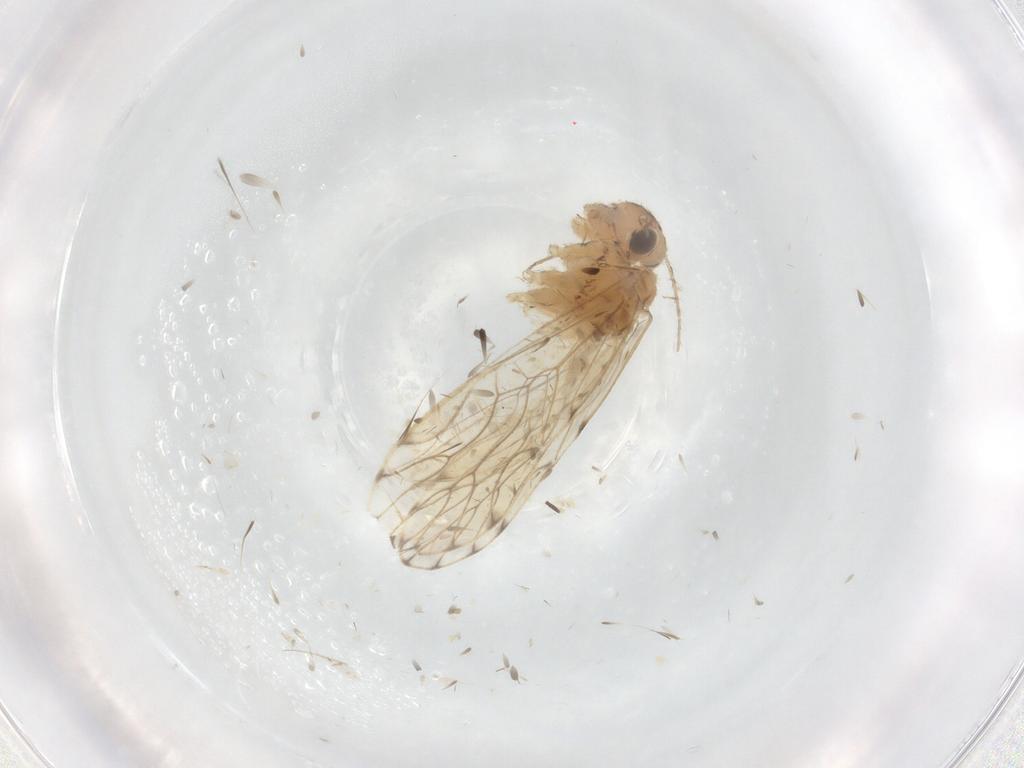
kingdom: Animalia
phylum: Arthropoda
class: Insecta
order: Psocodea
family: Epipsocidae
